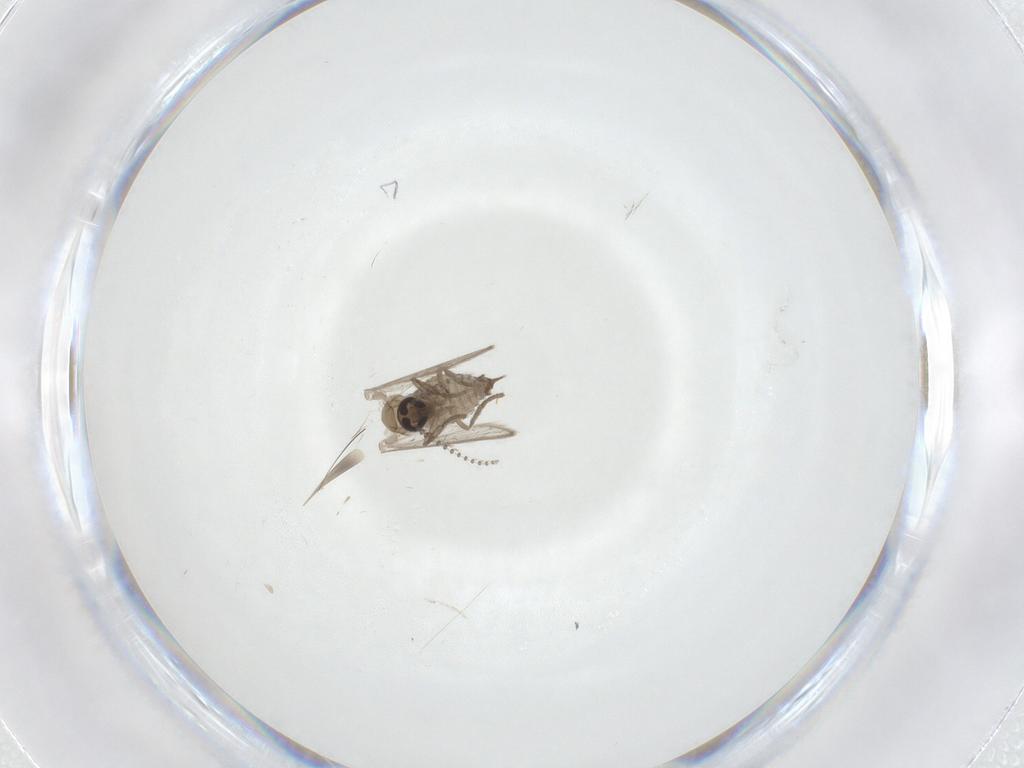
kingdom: Animalia
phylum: Arthropoda
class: Insecta
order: Diptera
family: Psychodidae
